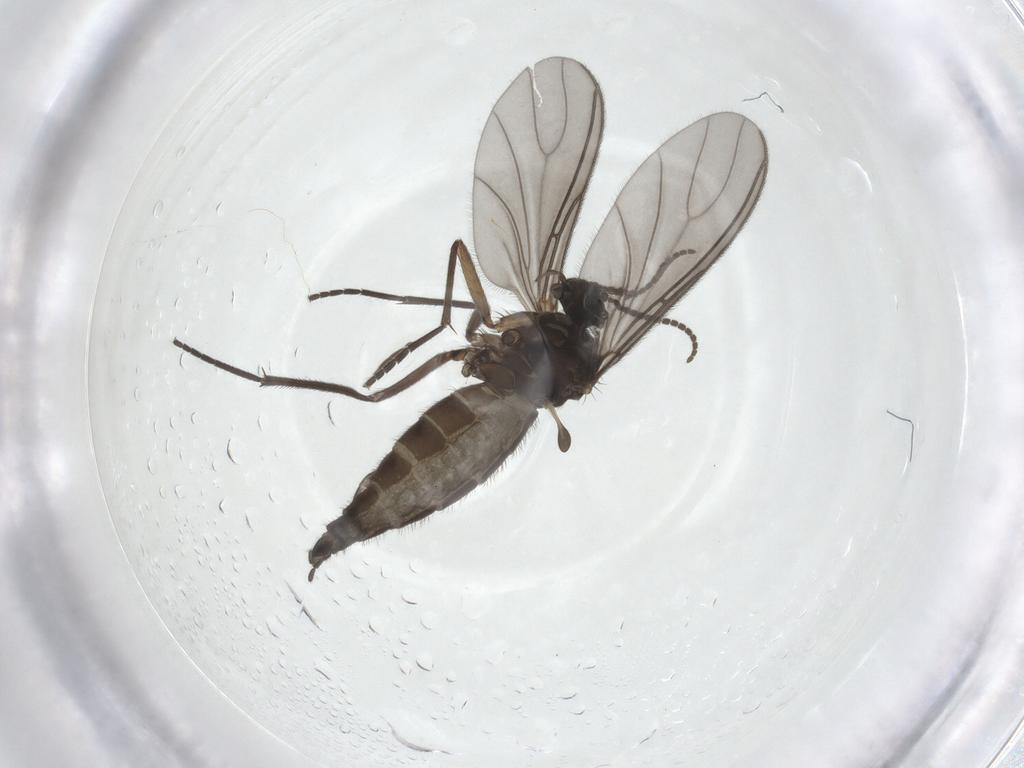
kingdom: Animalia
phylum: Arthropoda
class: Insecta
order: Diptera
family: Sciaridae
